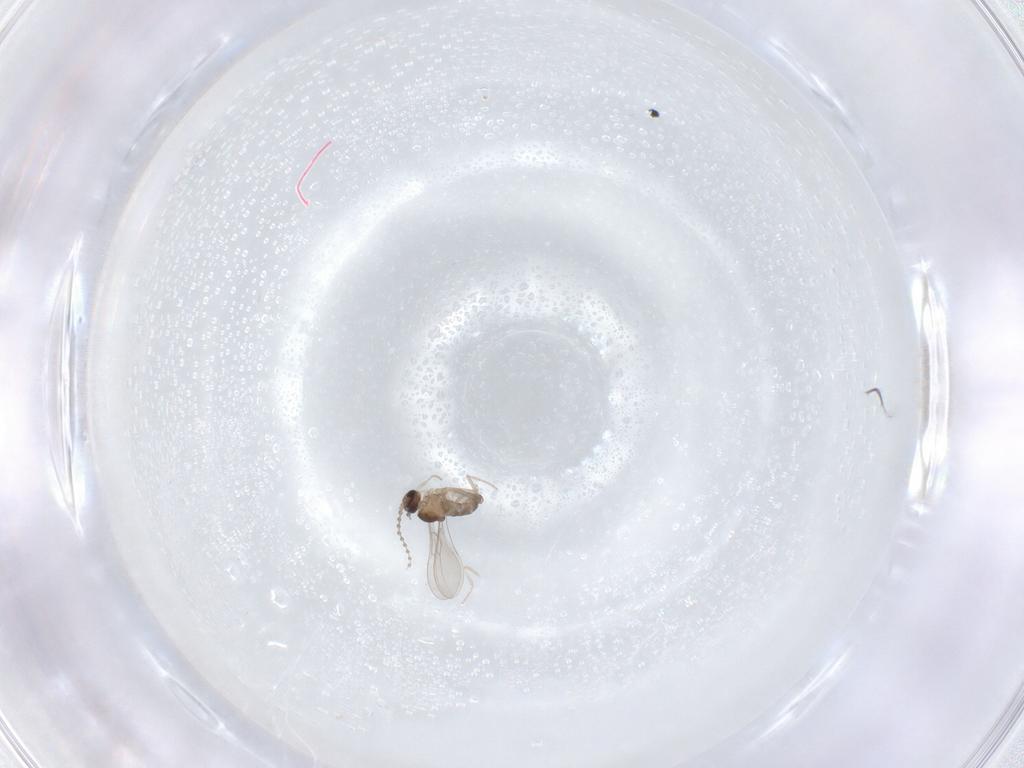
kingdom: Animalia
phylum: Arthropoda
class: Insecta
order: Diptera
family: Cecidomyiidae
